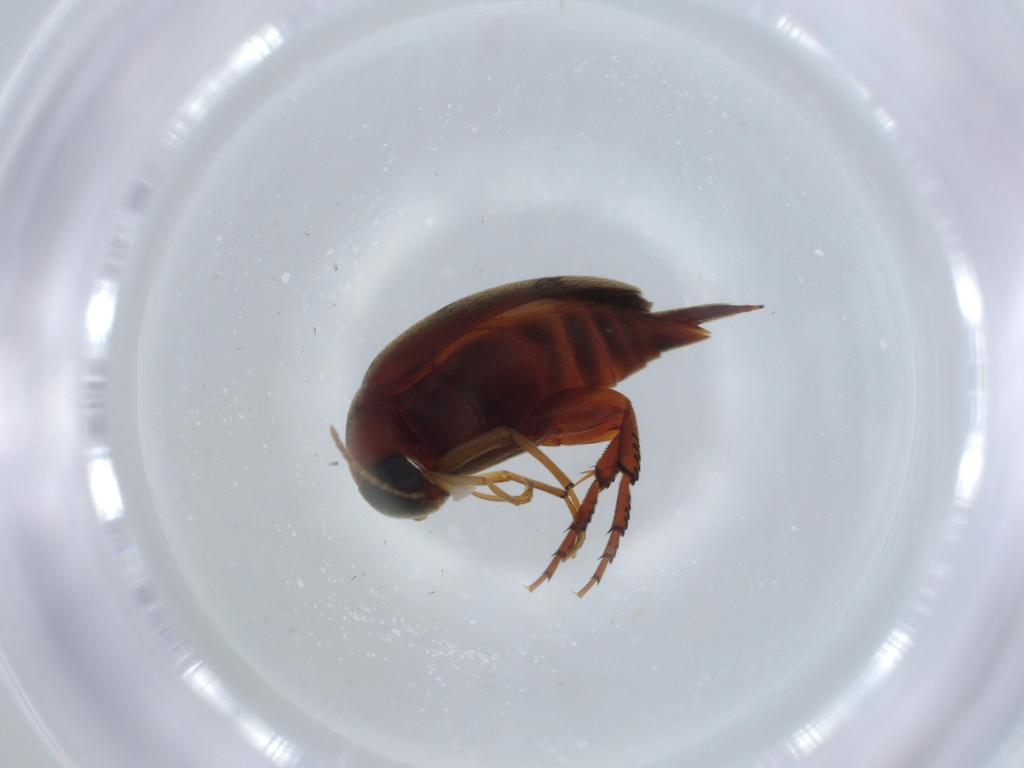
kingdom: Animalia
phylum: Arthropoda
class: Insecta
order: Coleoptera
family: Mordellidae
